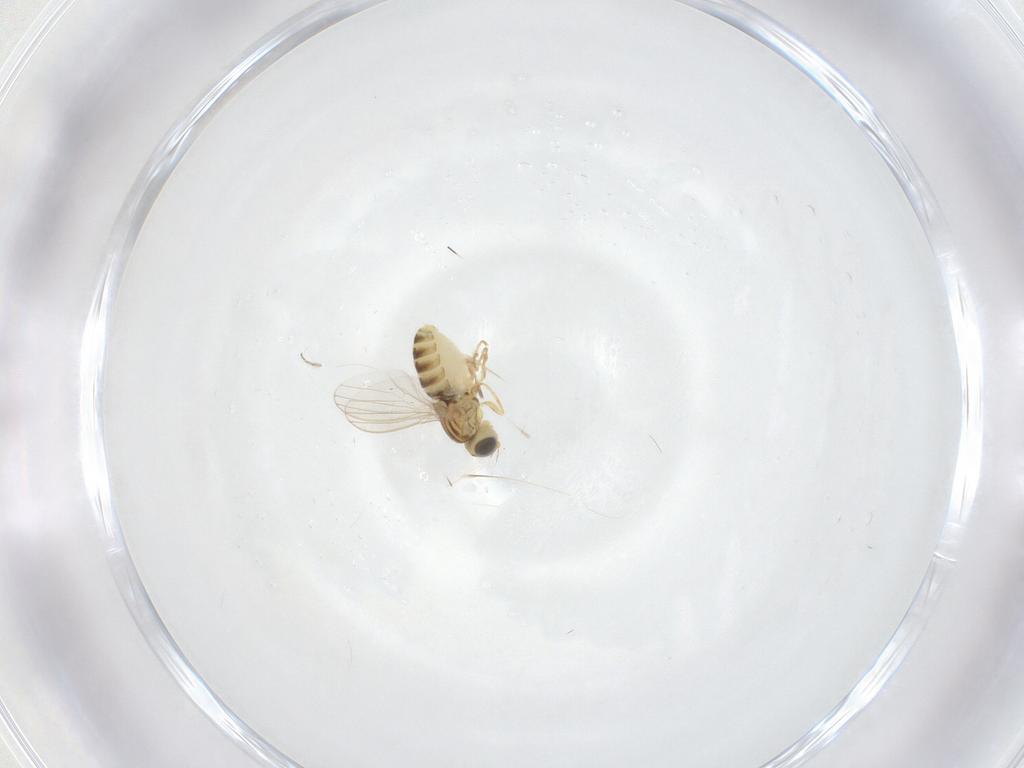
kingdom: Animalia
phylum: Arthropoda
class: Insecta
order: Diptera
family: Chyromyidae
